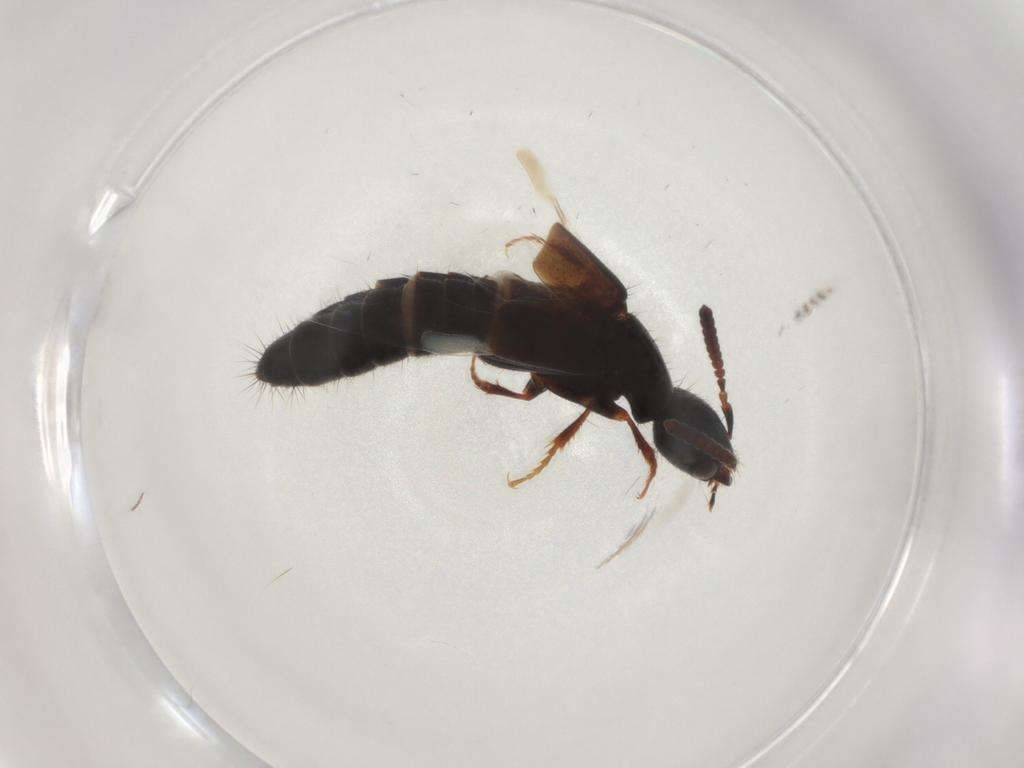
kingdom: Animalia
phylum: Arthropoda
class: Insecta
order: Coleoptera
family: Staphylinidae
